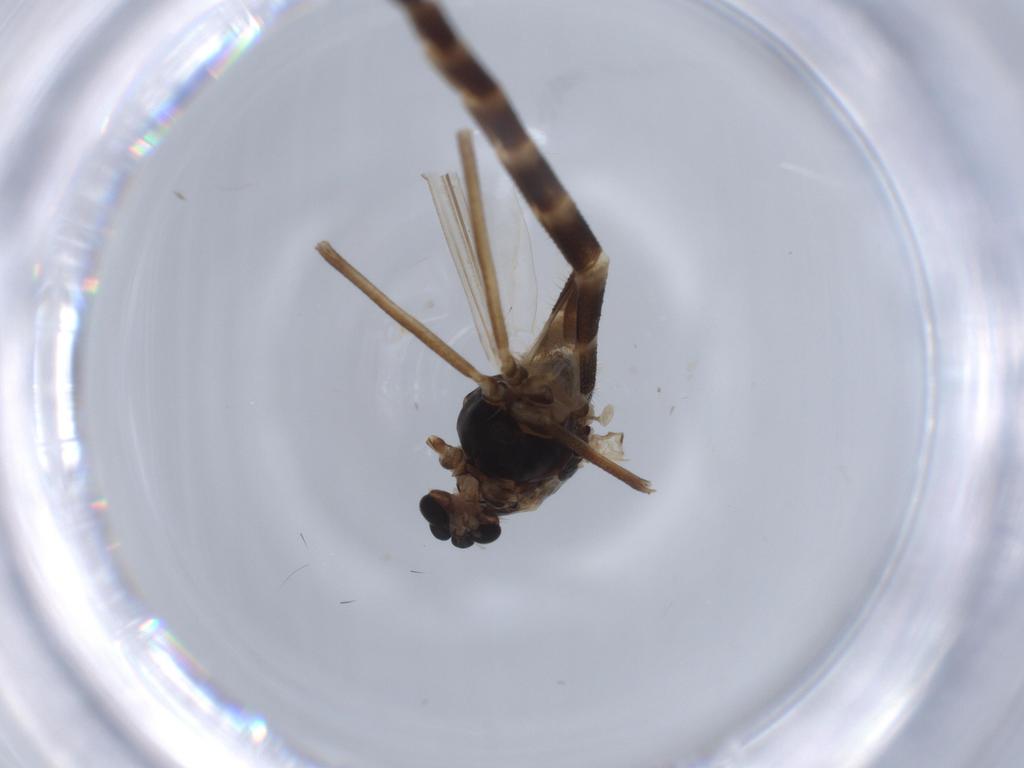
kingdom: Animalia
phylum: Arthropoda
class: Insecta
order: Diptera
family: Chironomidae
